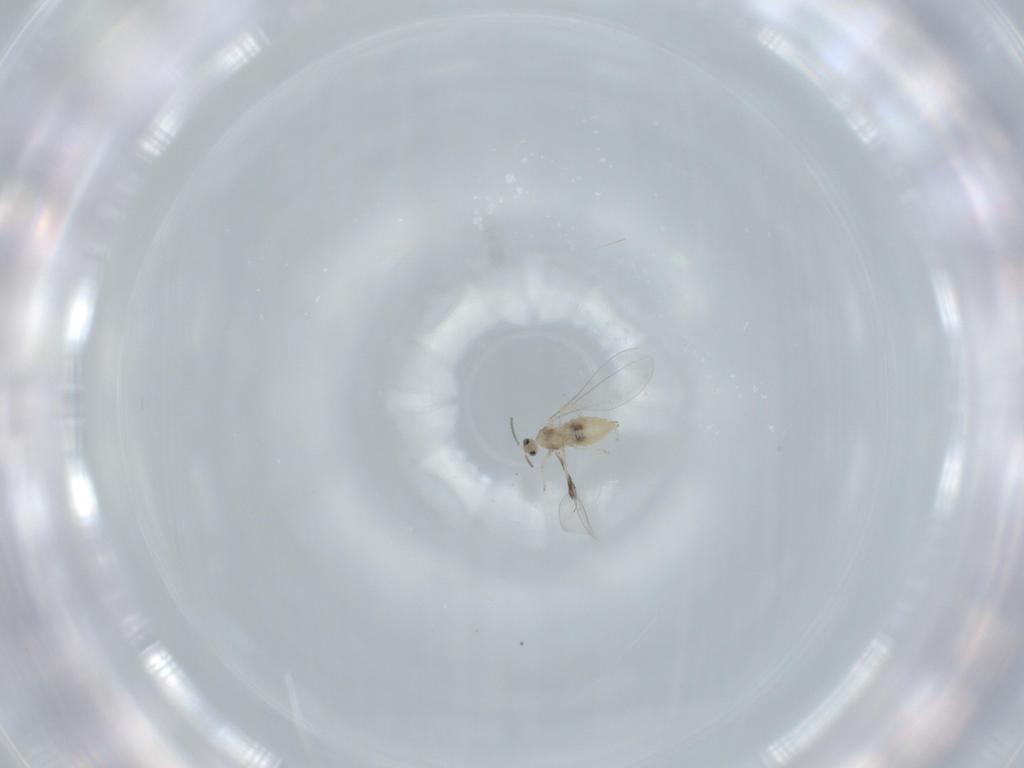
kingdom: Animalia
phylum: Arthropoda
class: Insecta
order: Diptera
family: Cecidomyiidae
